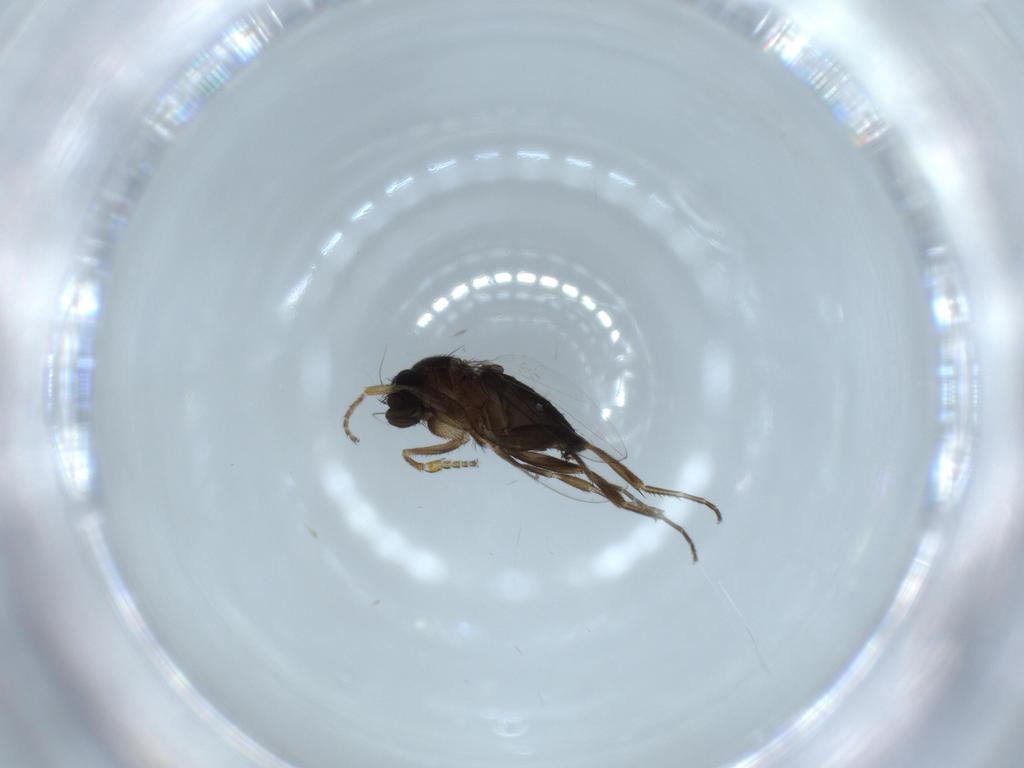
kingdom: Animalia
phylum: Arthropoda
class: Insecta
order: Diptera
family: Phoridae
